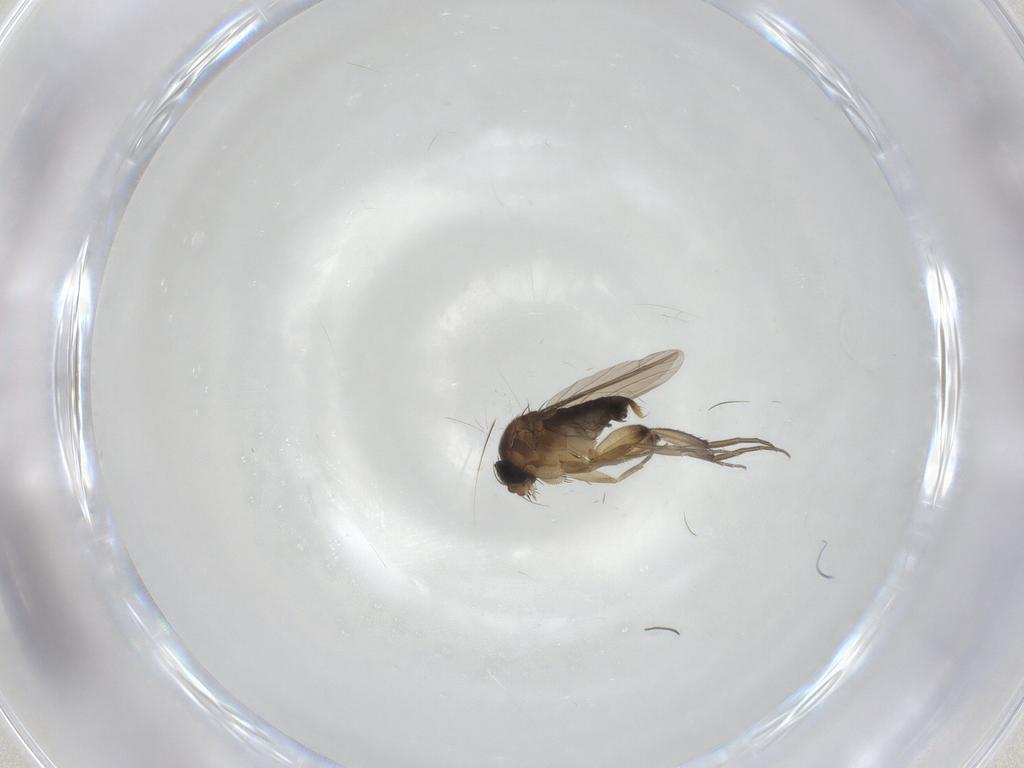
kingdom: Animalia
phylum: Arthropoda
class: Insecta
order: Diptera
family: Phoridae
